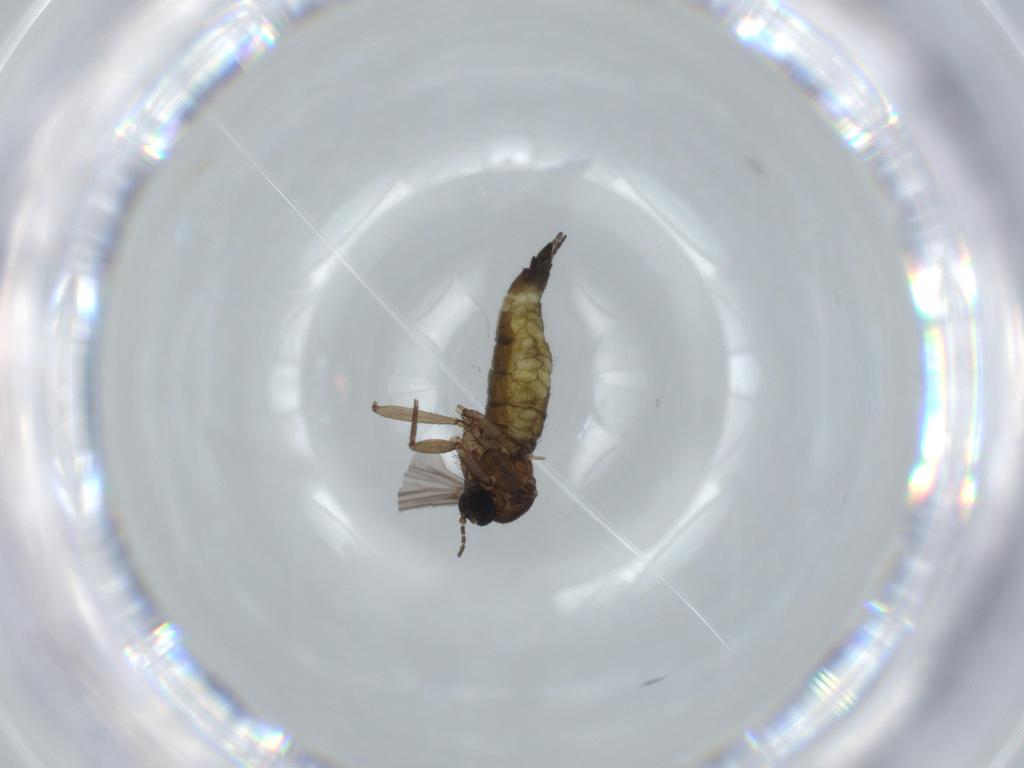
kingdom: Animalia
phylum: Arthropoda
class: Insecta
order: Diptera
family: Sciaridae
